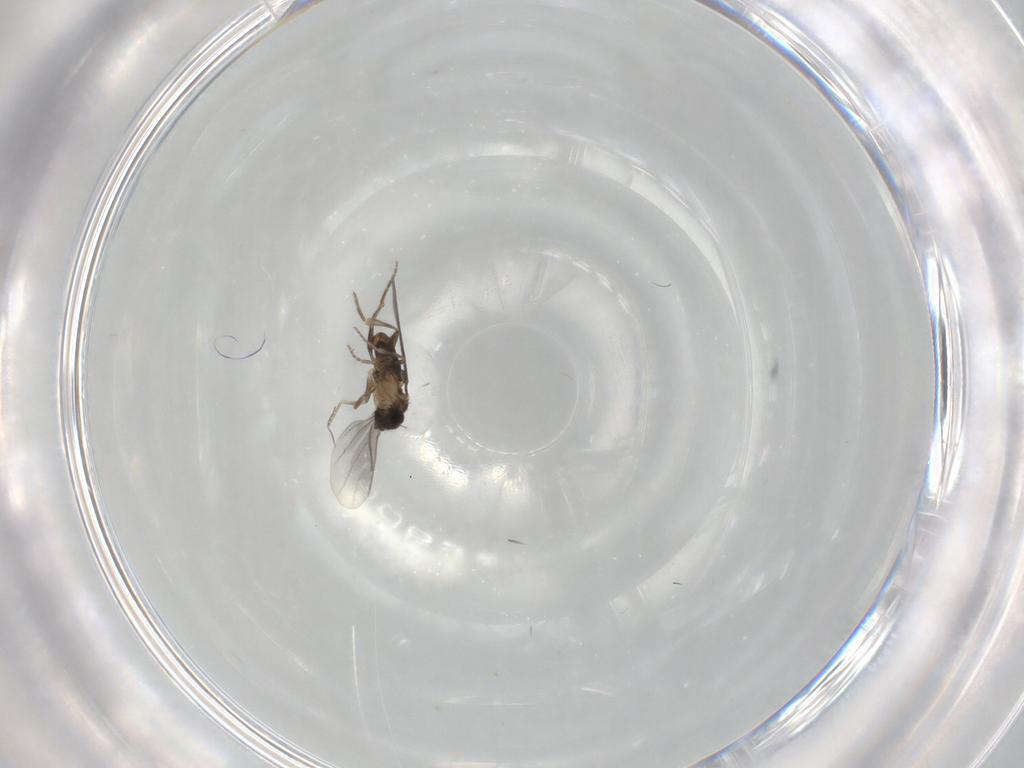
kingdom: Animalia
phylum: Arthropoda
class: Insecta
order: Diptera
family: Phoridae
